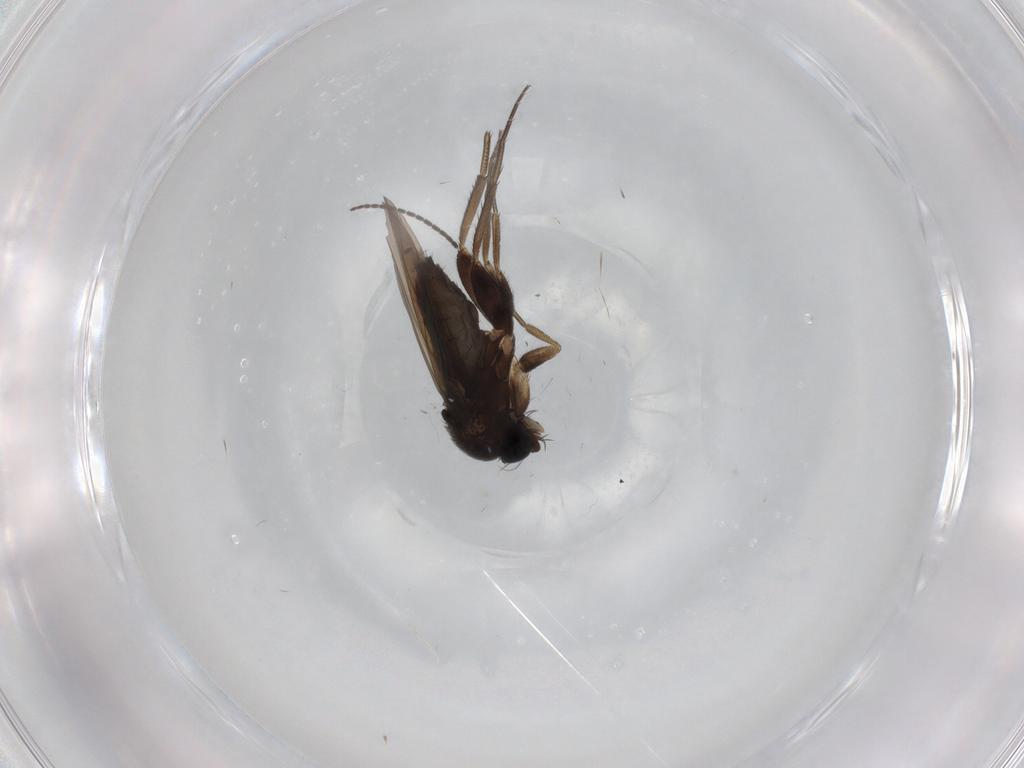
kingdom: Animalia
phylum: Arthropoda
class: Insecta
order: Diptera
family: Phoridae
